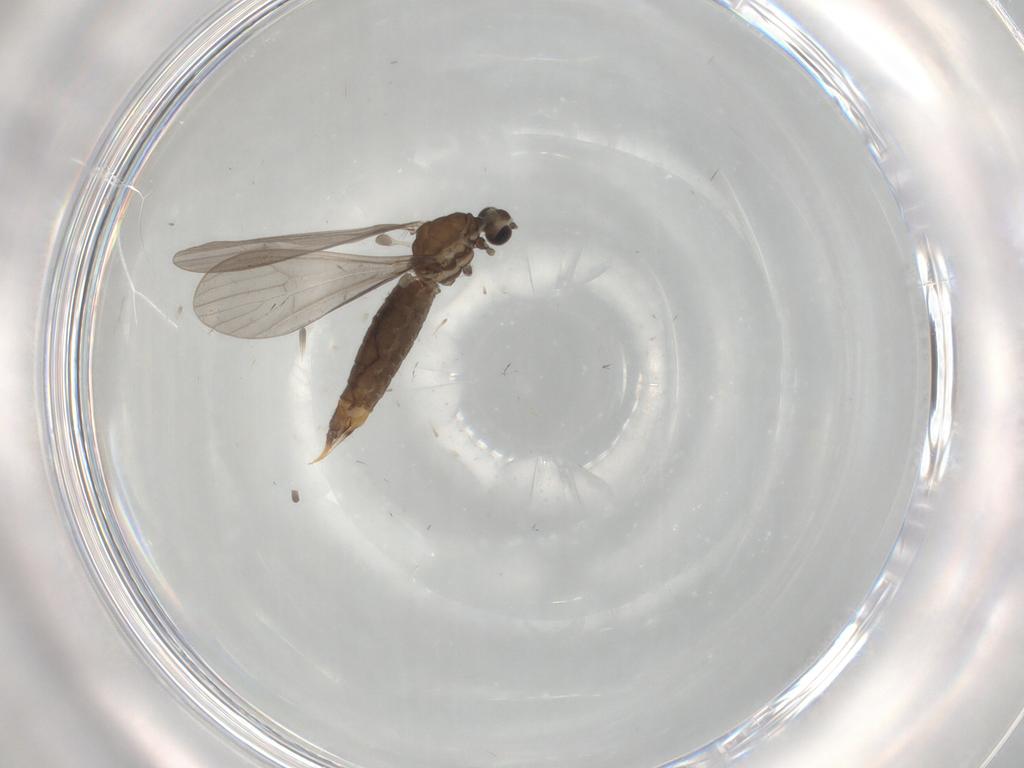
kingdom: Animalia
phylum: Arthropoda
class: Insecta
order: Diptera
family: Limoniidae
